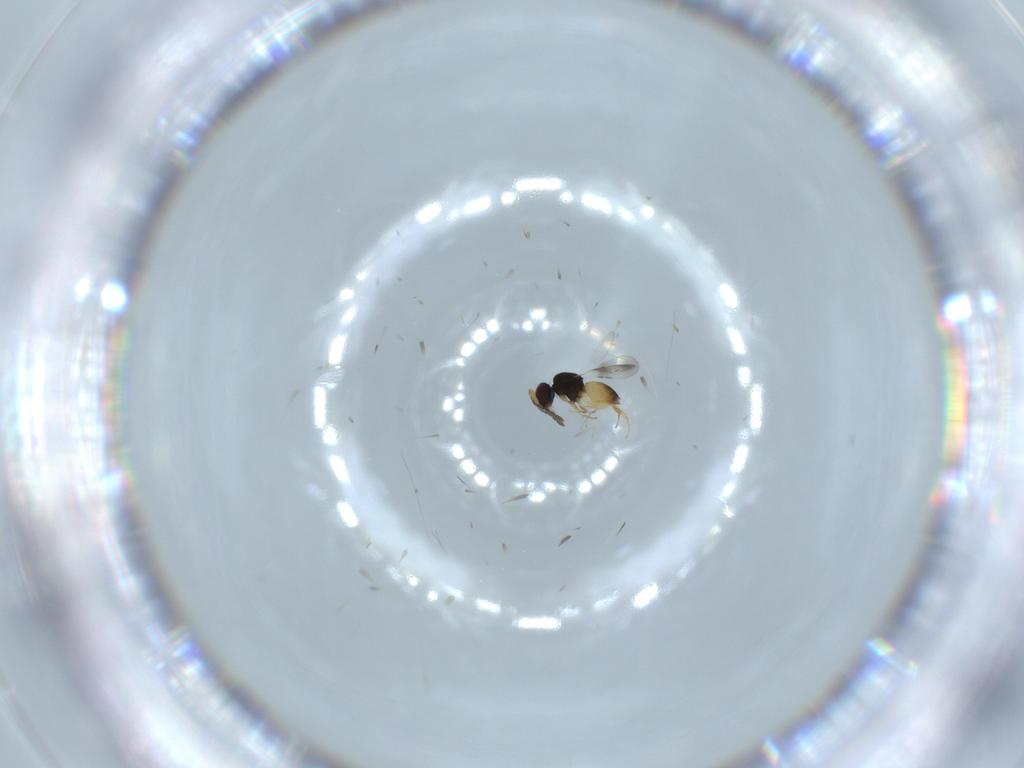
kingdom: Animalia
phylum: Arthropoda
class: Insecta
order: Hymenoptera
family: Ceraphronidae
